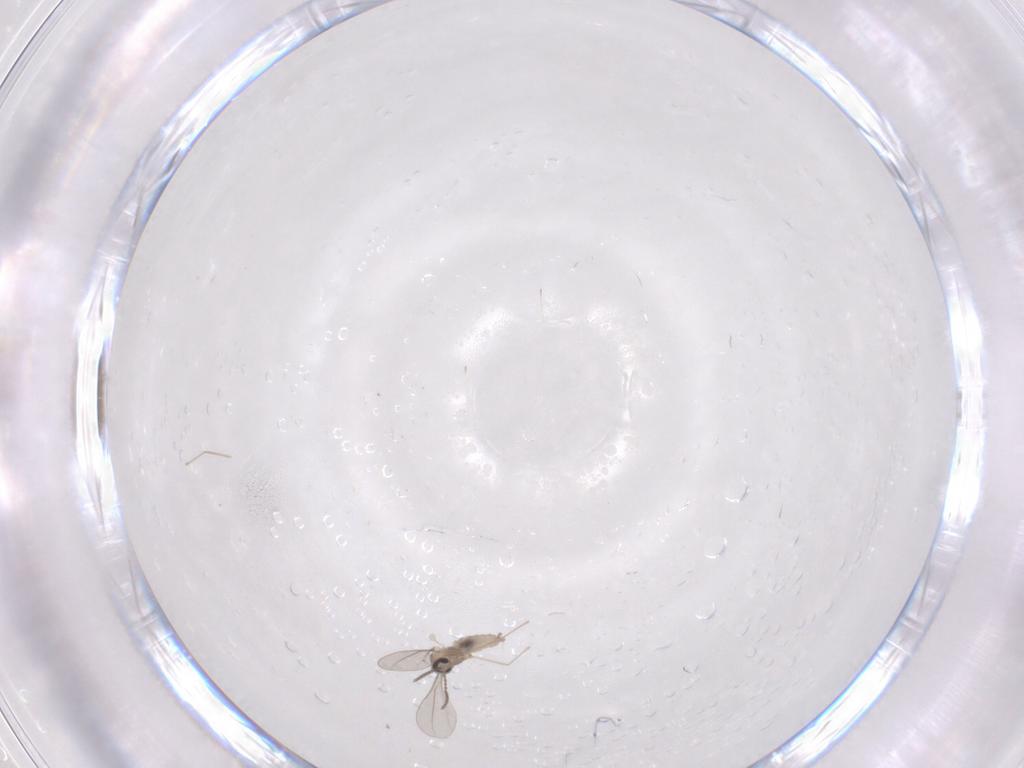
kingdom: Animalia
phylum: Arthropoda
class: Insecta
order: Diptera
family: Cecidomyiidae
